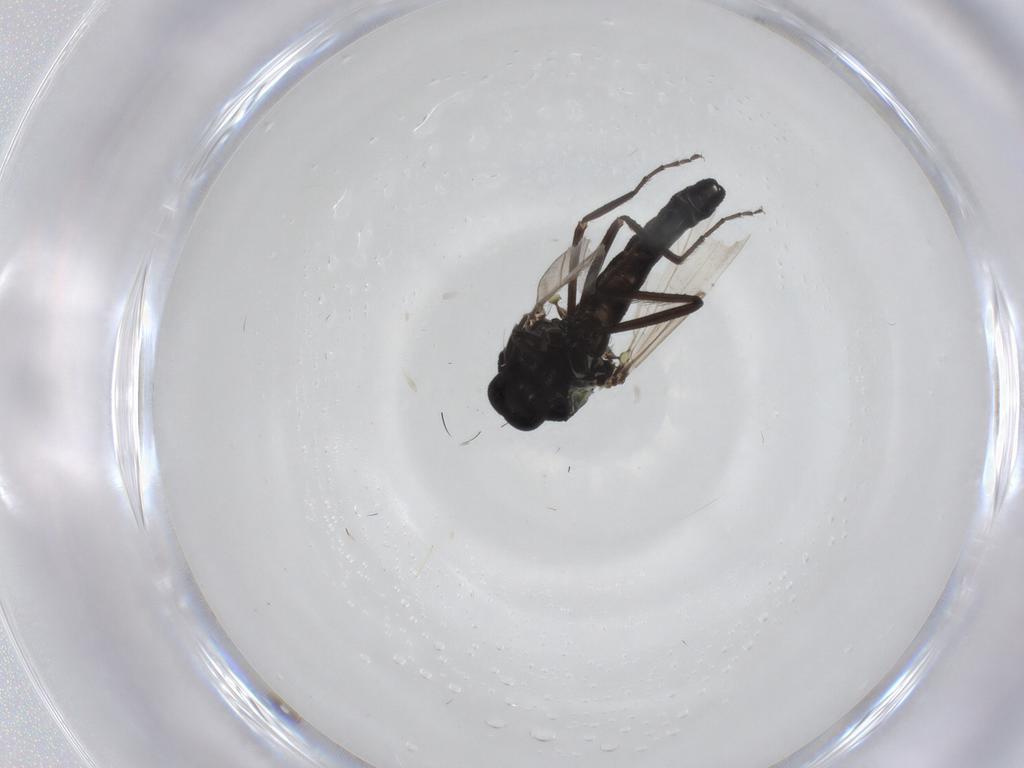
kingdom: Animalia
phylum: Arthropoda
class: Insecta
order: Diptera
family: Ceratopogonidae
